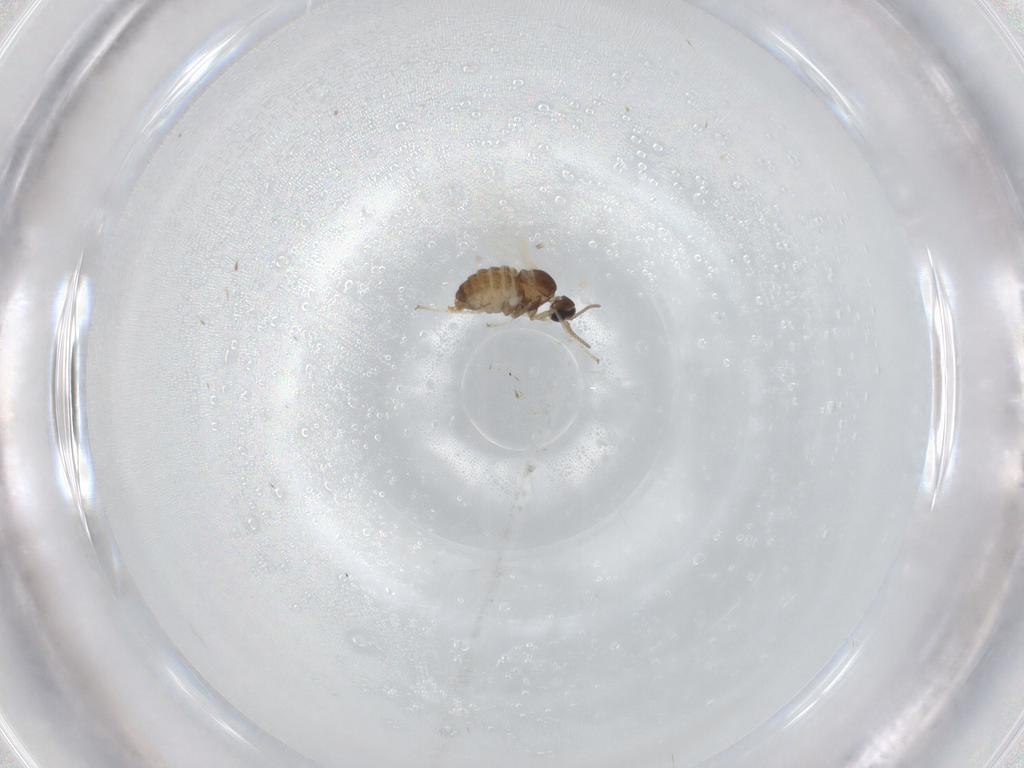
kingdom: Animalia
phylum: Arthropoda
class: Insecta
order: Diptera
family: Cecidomyiidae
